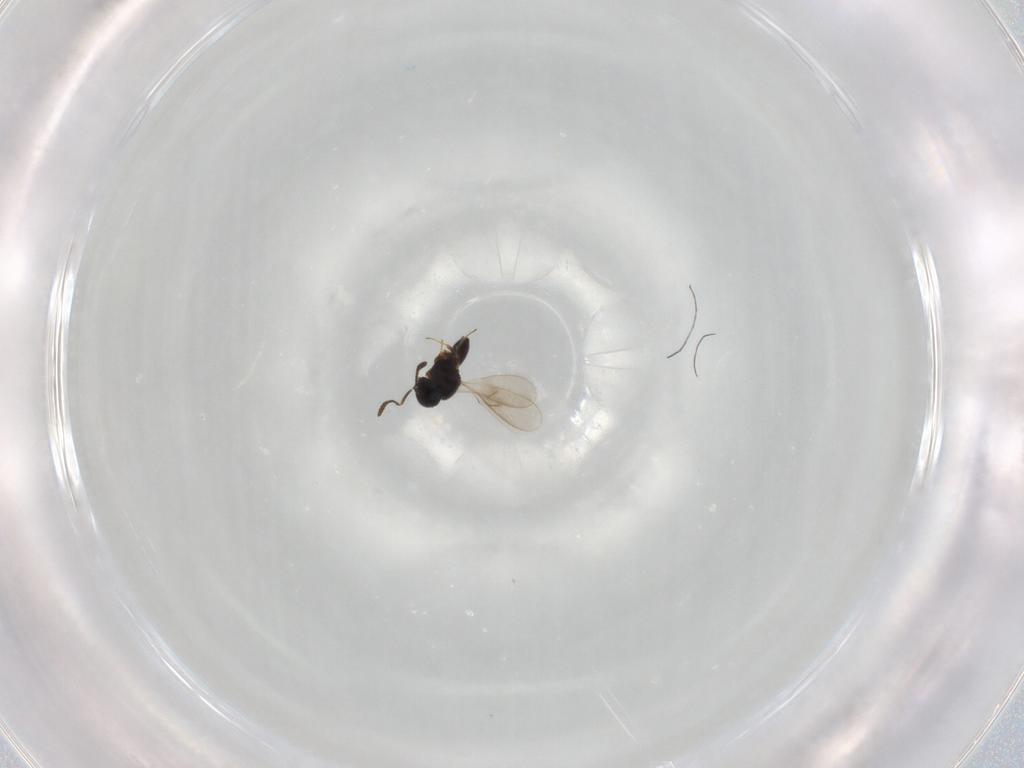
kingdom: Animalia
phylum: Arthropoda
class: Insecta
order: Hymenoptera
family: Scelionidae
